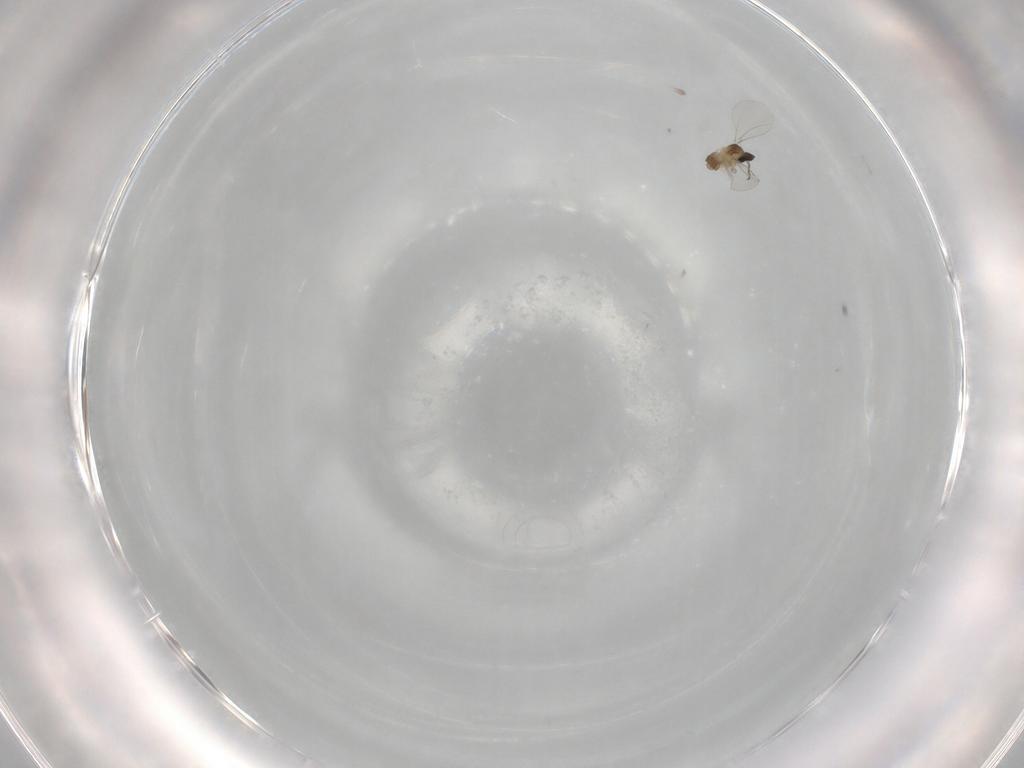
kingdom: Animalia
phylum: Arthropoda
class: Insecta
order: Diptera
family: Cecidomyiidae
